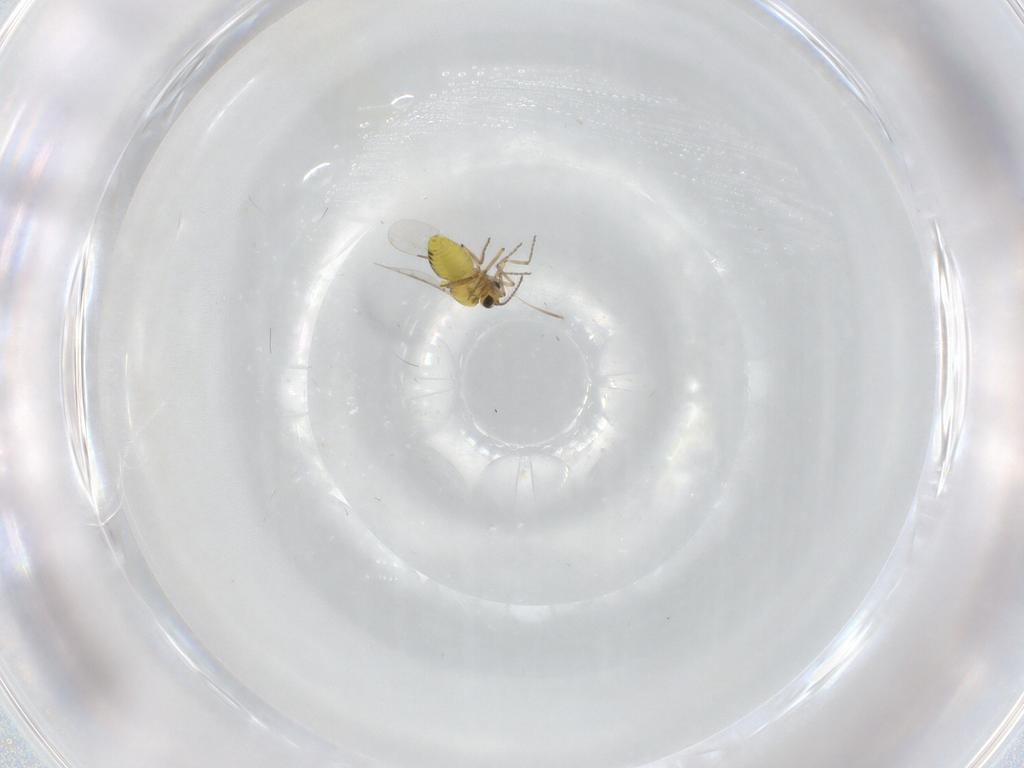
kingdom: Animalia
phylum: Arthropoda
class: Insecta
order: Diptera
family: Ceratopogonidae
